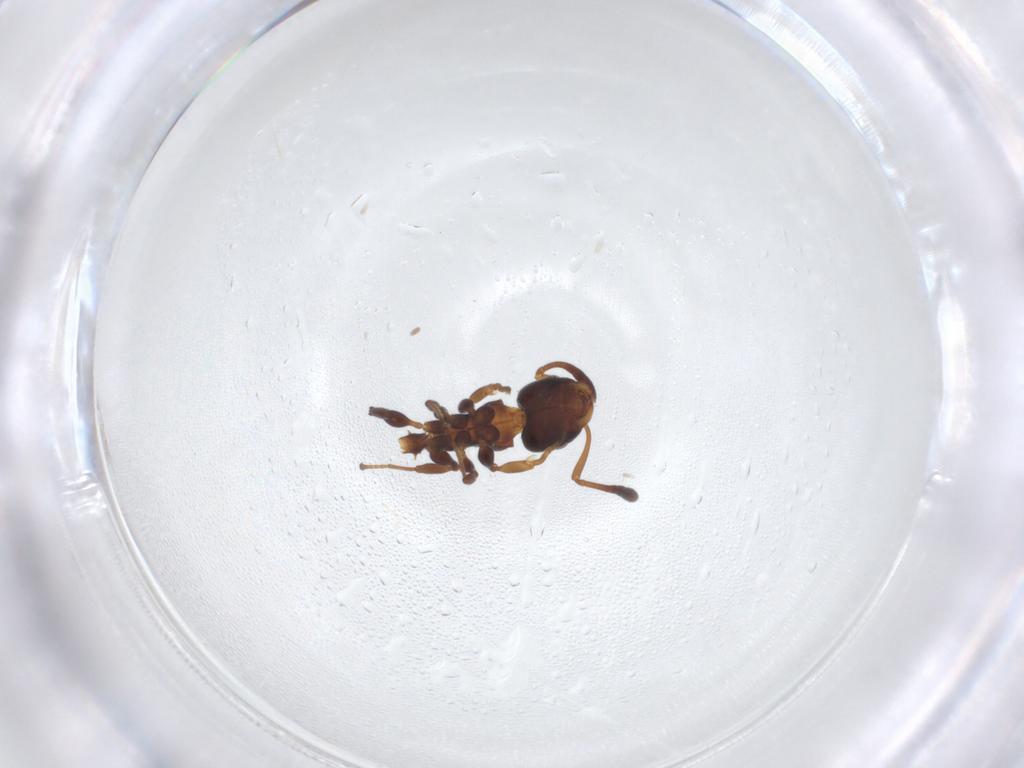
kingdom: Animalia
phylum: Arthropoda
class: Insecta
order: Hymenoptera
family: Formicidae
